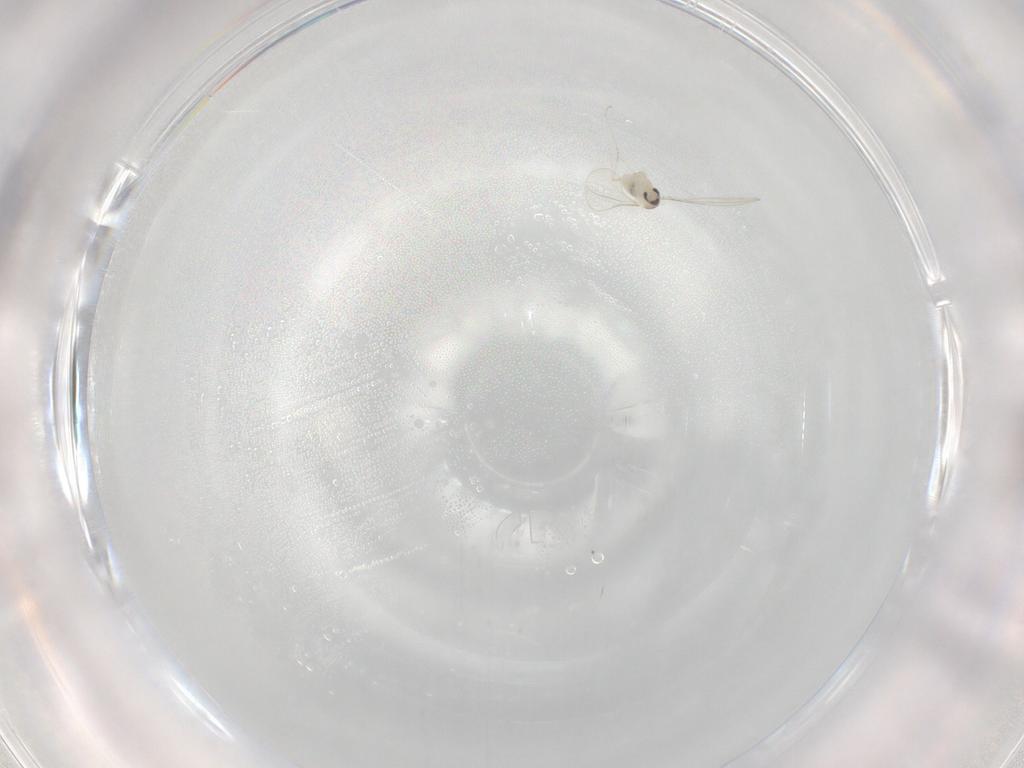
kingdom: Animalia
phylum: Arthropoda
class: Insecta
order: Diptera
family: Cecidomyiidae
